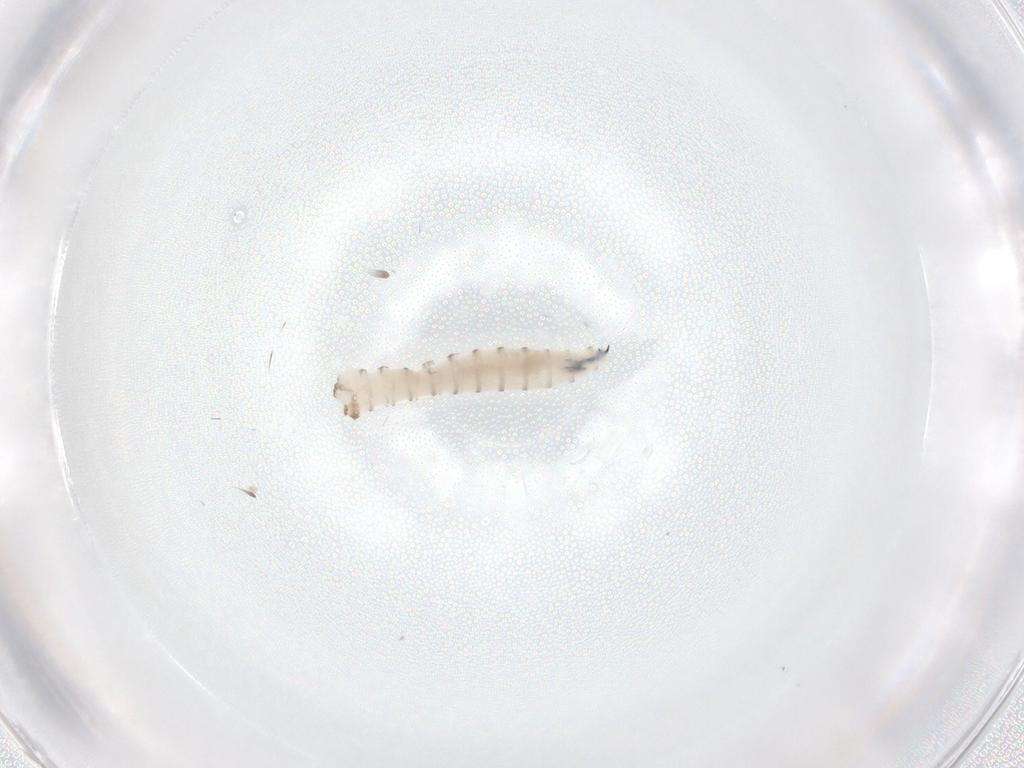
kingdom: Animalia
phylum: Arthropoda
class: Insecta
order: Diptera
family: Sarcophagidae
